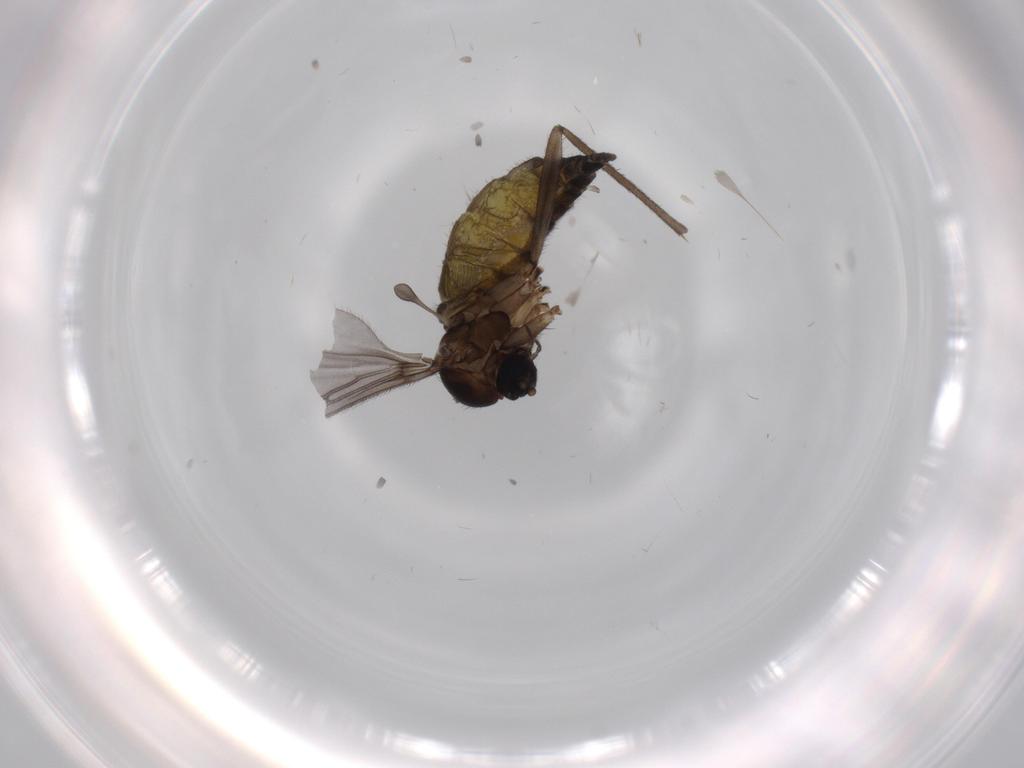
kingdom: Animalia
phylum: Arthropoda
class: Insecta
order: Diptera
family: Sciaridae
